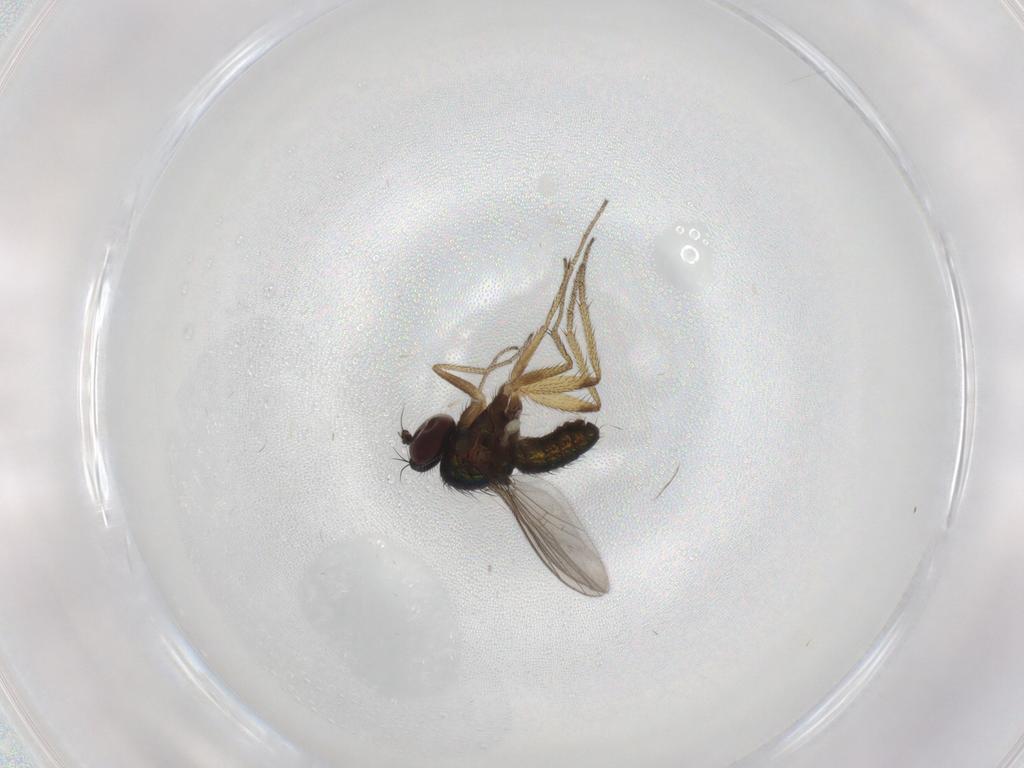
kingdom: Animalia
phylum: Arthropoda
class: Insecta
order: Diptera
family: Dolichopodidae
